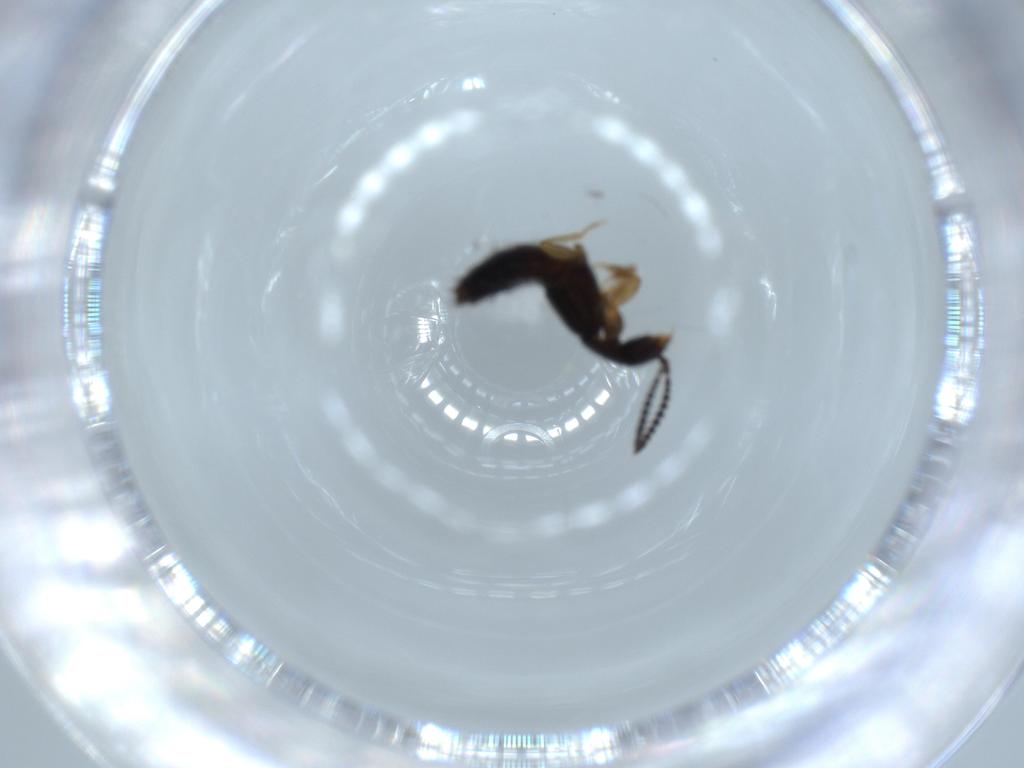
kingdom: Animalia
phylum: Arthropoda
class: Insecta
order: Coleoptera
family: Staphylinidae
